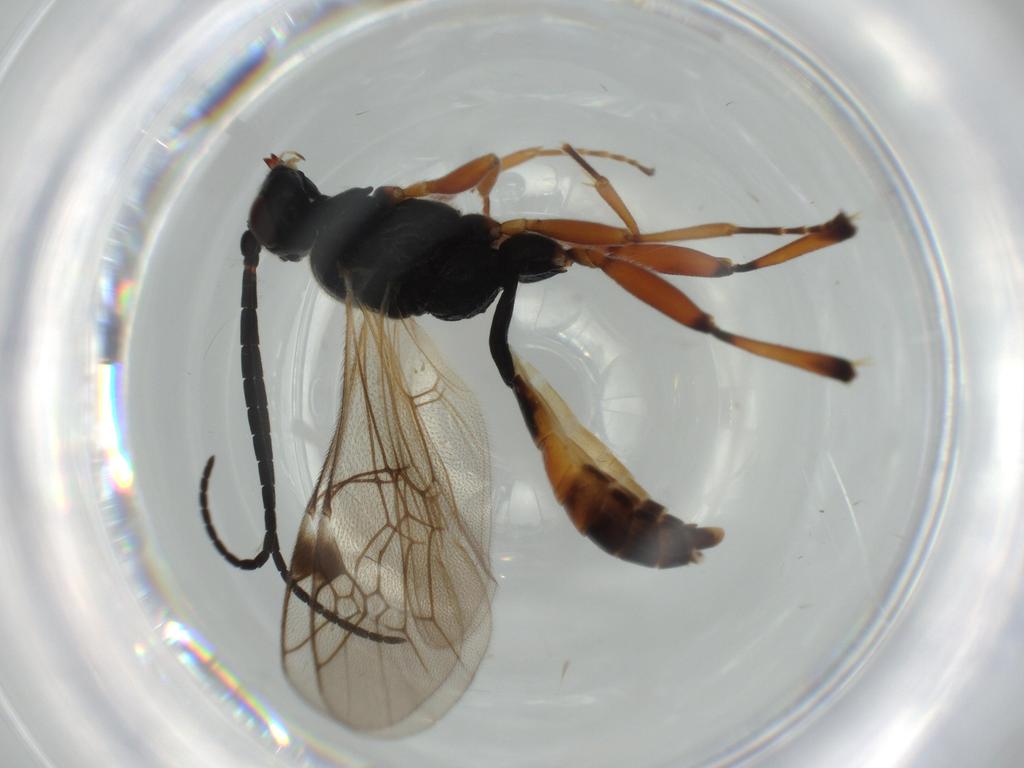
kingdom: Animalia
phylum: Arthropoda
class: Insecta
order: Hymenoptera
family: Ichneumonidae
